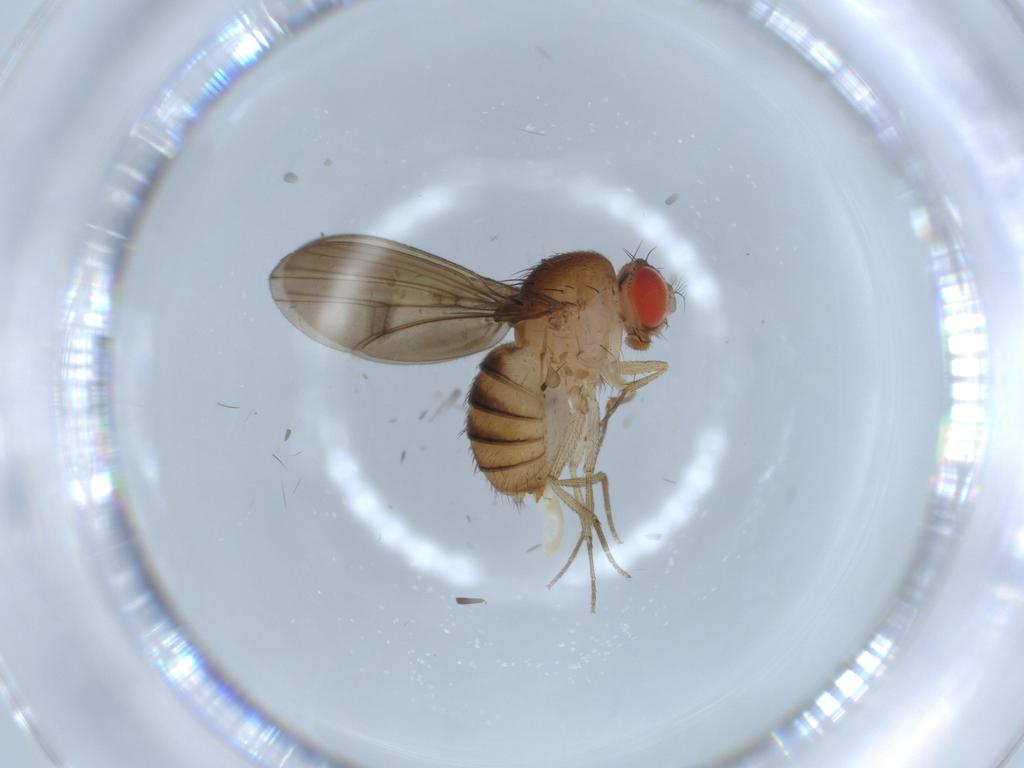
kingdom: Animalia
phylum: Arthropoda
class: Insecta
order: Diptera
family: Drosophilidae
